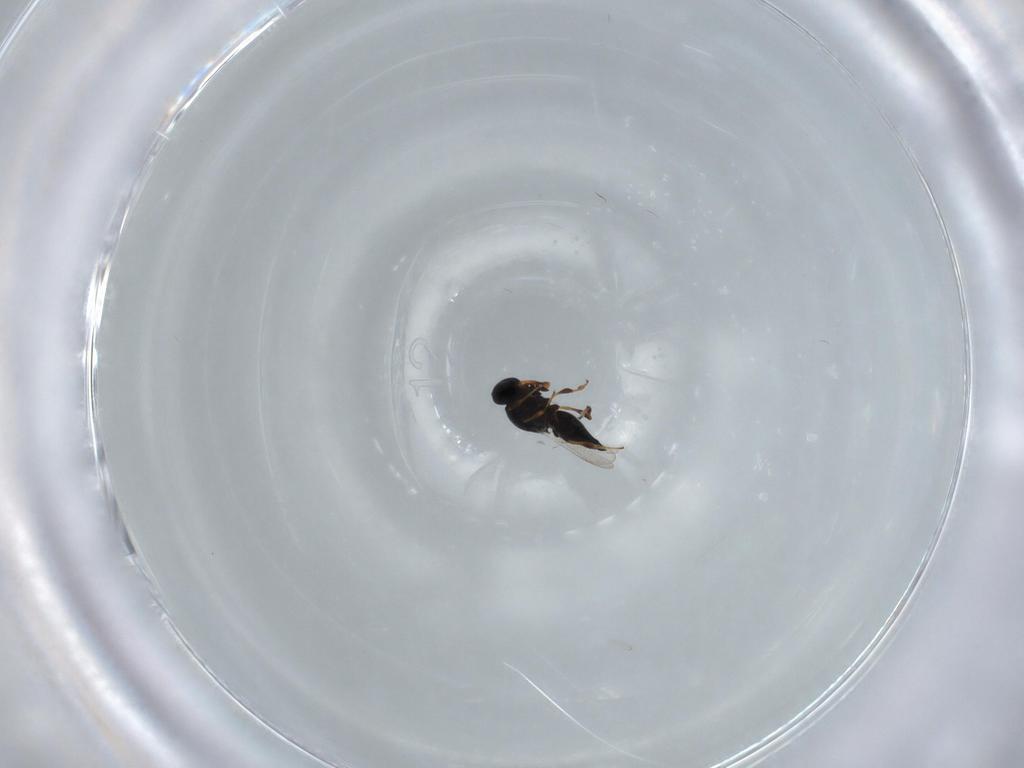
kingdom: Animalia
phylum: Arthropoda
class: Insecta
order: Hymenoptera
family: Platygastridae
